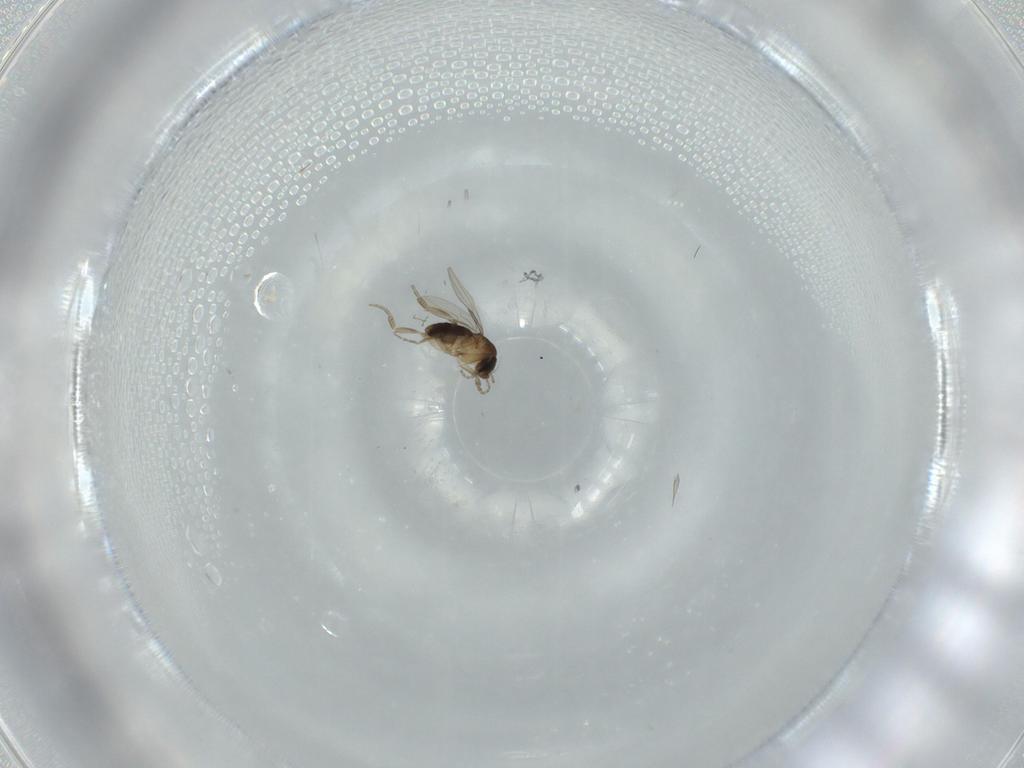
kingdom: Animalia
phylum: Arthropoda
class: Insecta
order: Diptera
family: Phoridae
